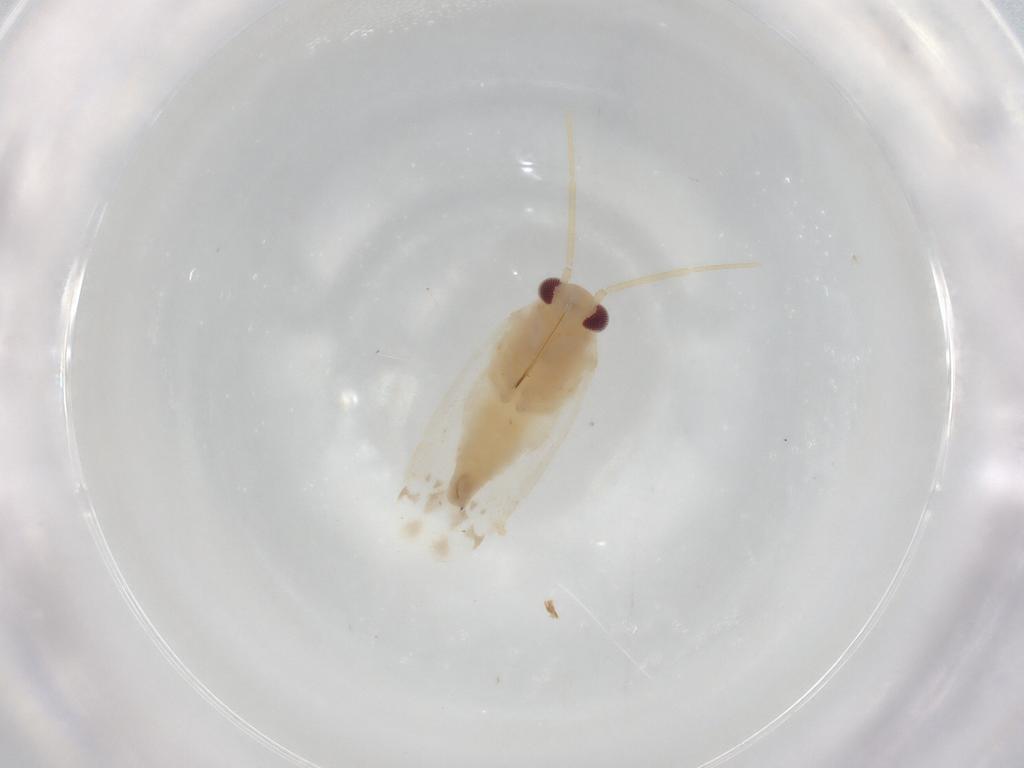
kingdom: Animalia
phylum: Arthropoda
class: Insecta
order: Hemiptera
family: Miridae
